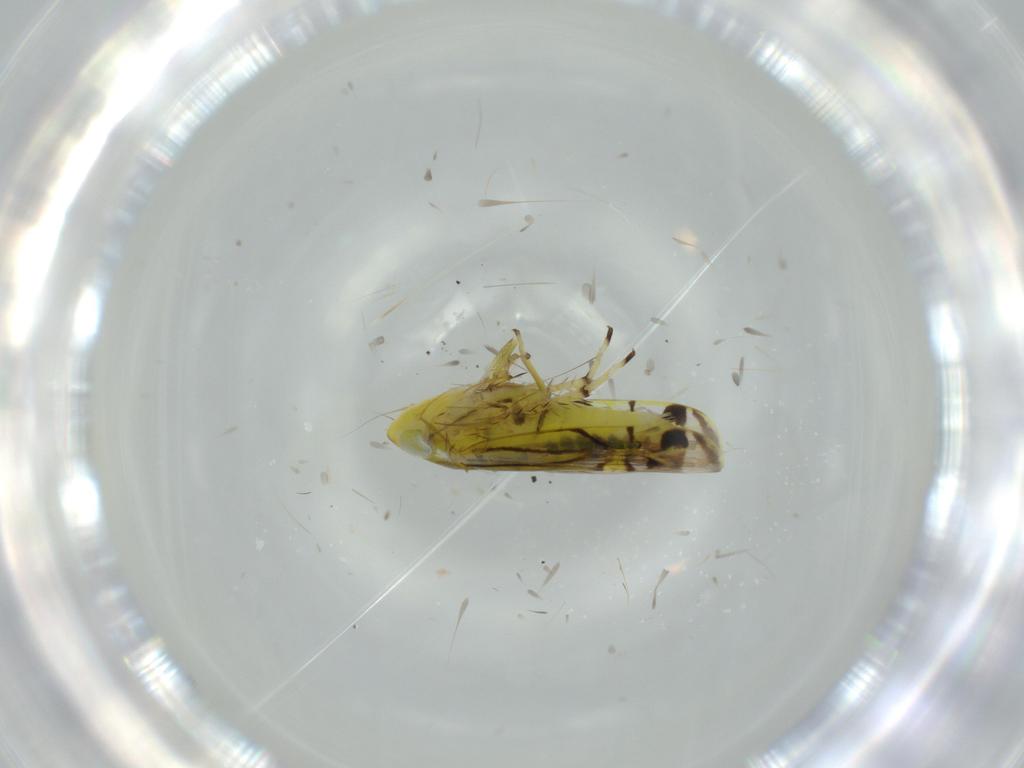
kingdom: Animalia
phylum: Arthropoda
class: Insecta
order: Hemiptera
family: Cicadellidae
